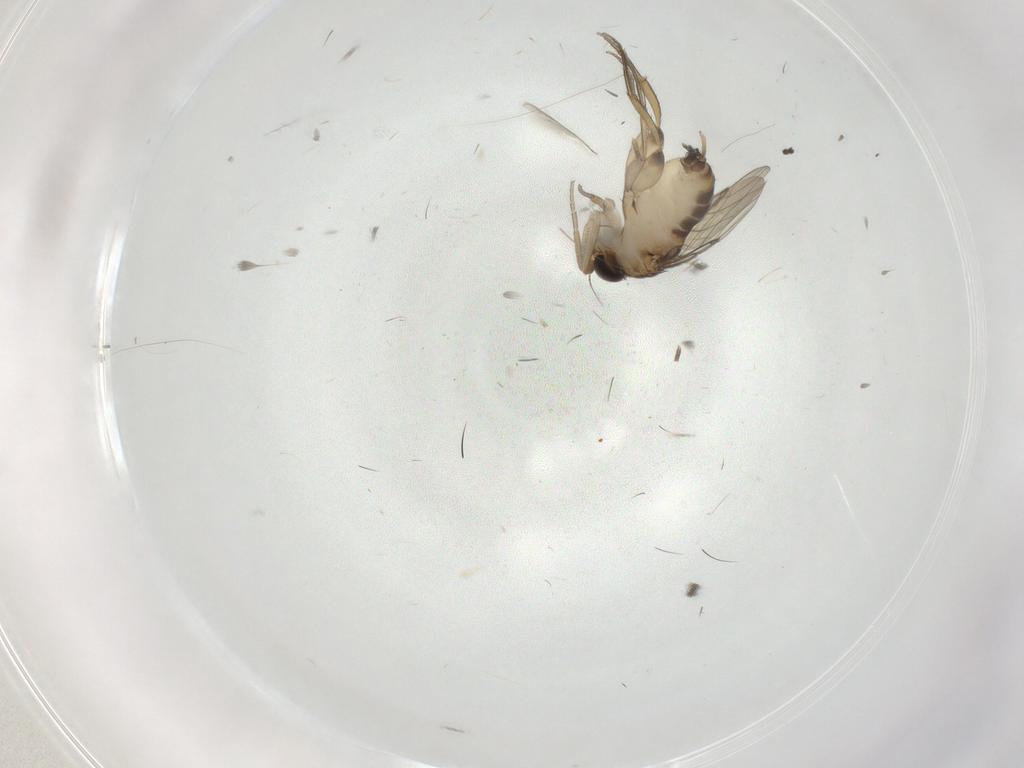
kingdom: Animalia
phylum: Arthropoda
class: Insecta
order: Diptera
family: Sciaridae
